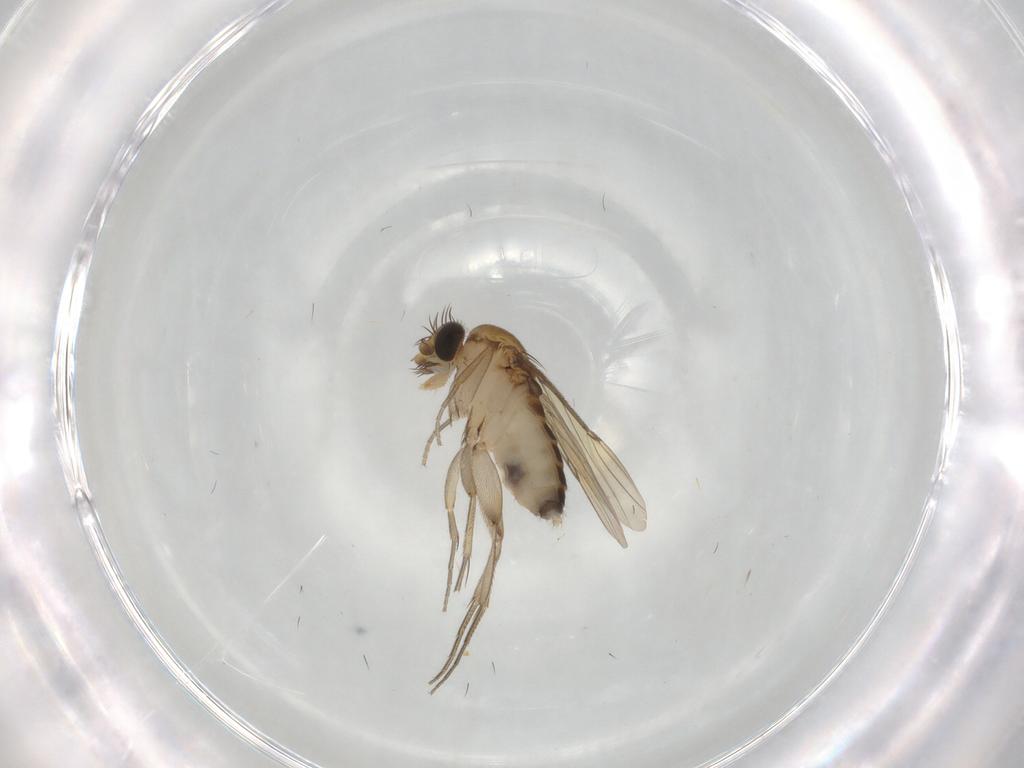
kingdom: Animalia
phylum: Arthropoda
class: Insecta
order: Diptera
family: Phoridae
